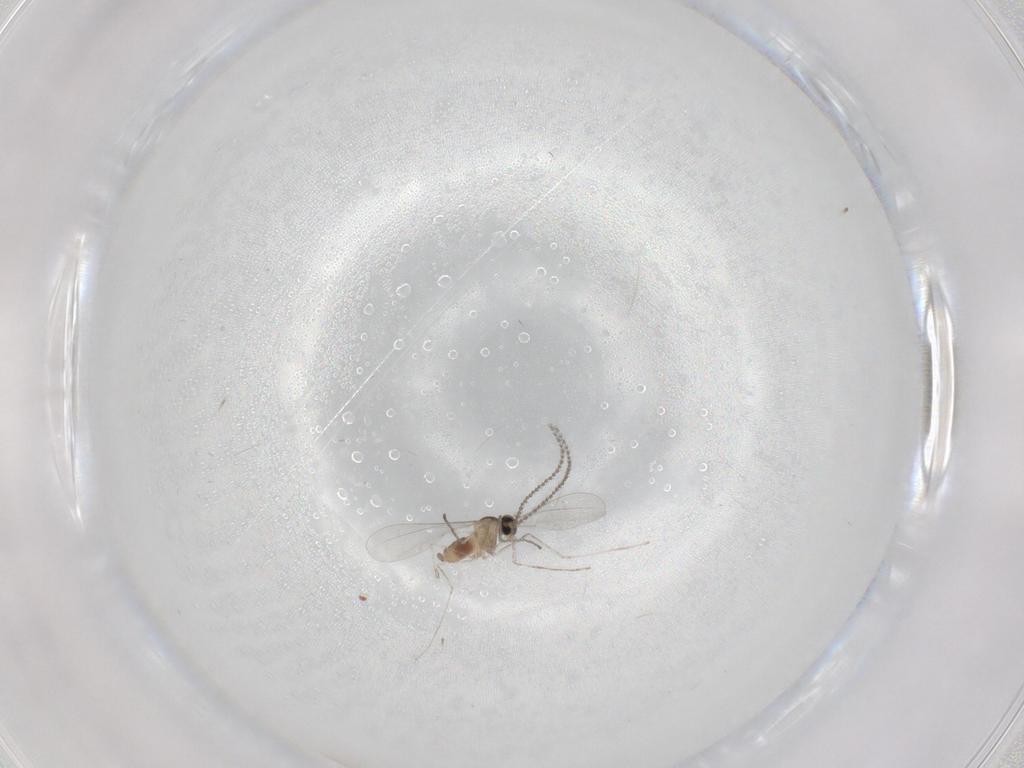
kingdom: Animalia
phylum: Arthropoda
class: Insecta
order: Diptera
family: Cecidomyiidae
